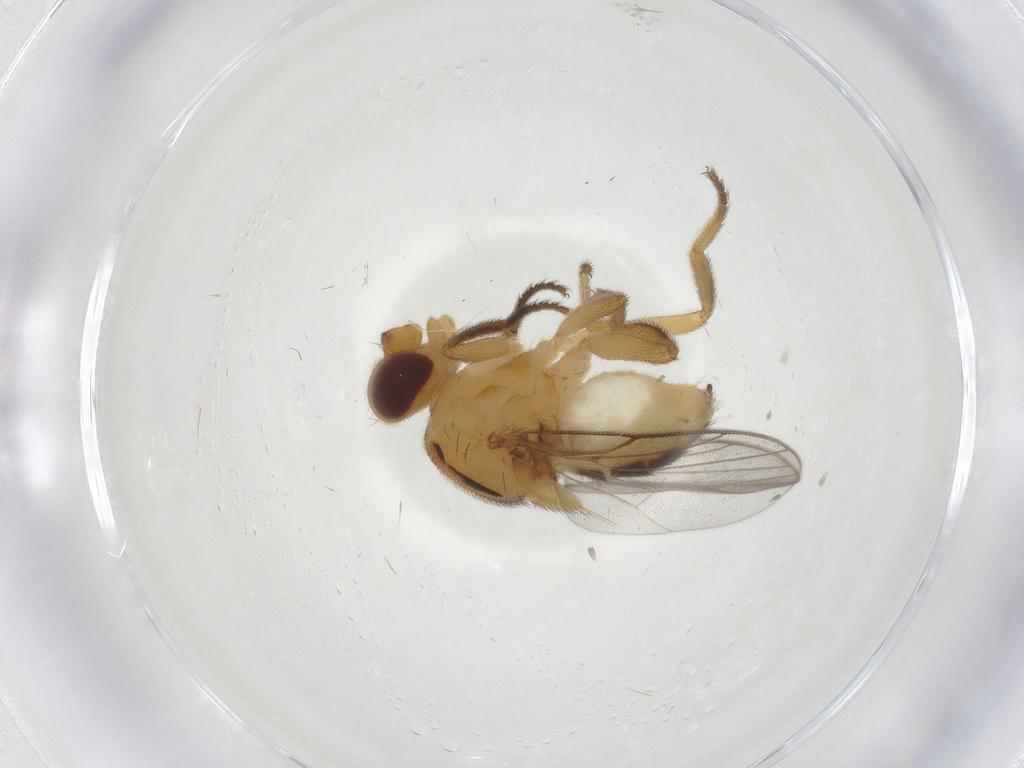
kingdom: Animalia
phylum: Arthropoda
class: Insecta
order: Diptera
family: Chloropidae
